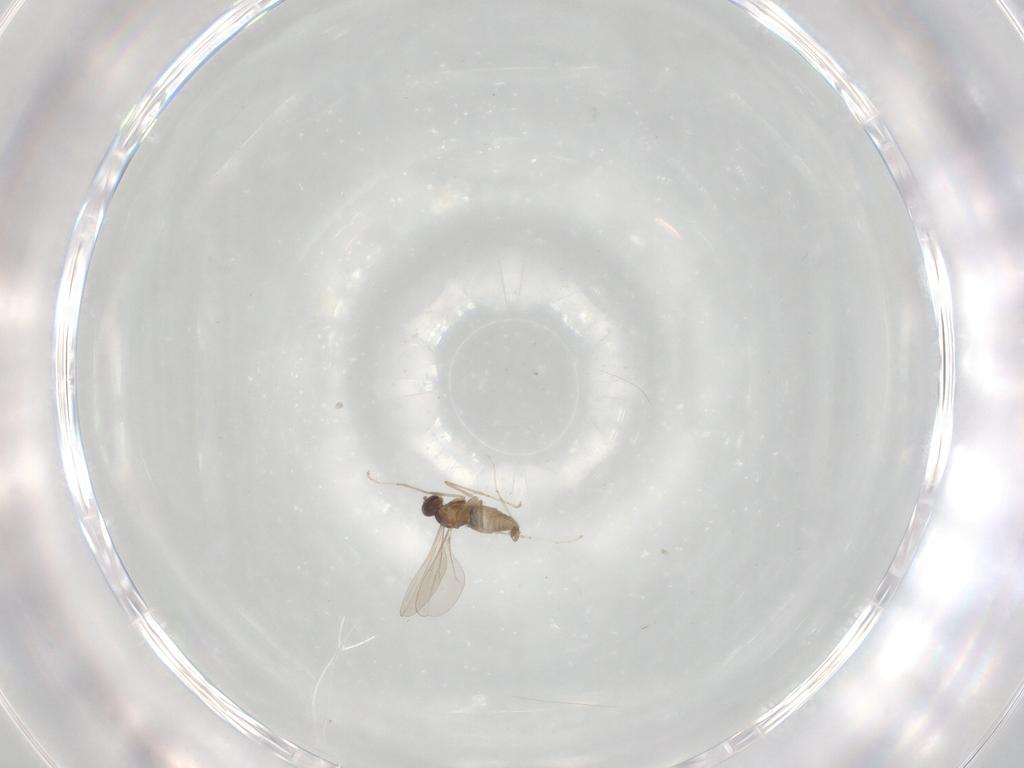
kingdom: Animalia
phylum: Arthropoda
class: Insecta
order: Diptera
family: Cecidomyiidae
